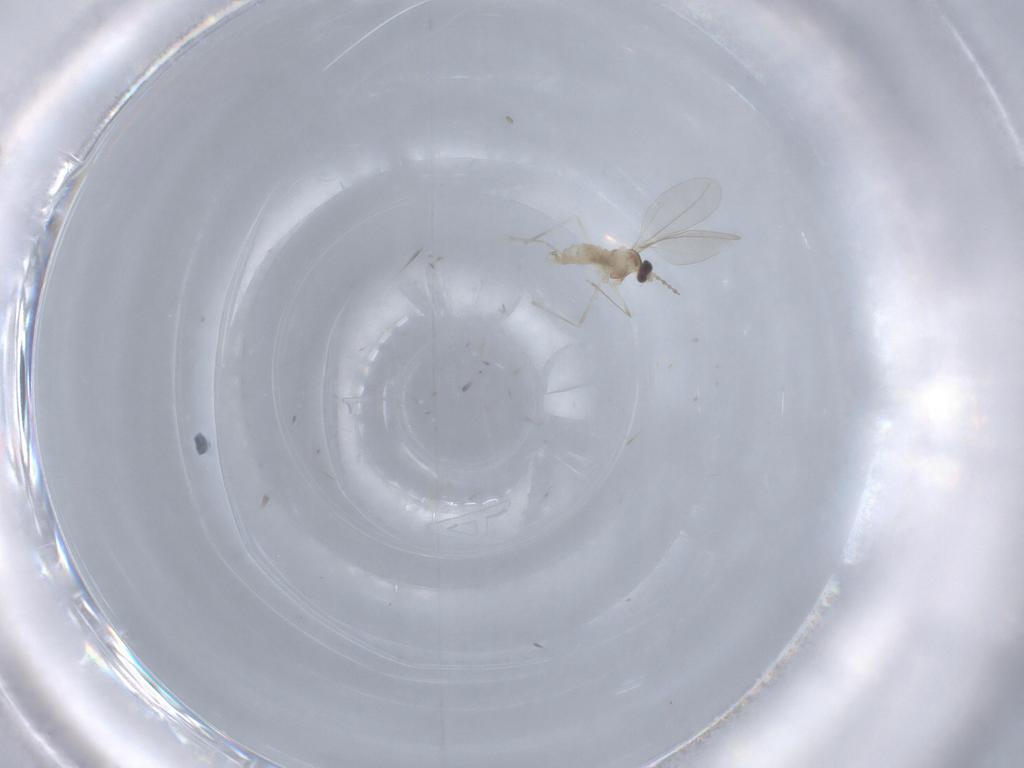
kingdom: Animalia
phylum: Arthropoda
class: Insecta
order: Diptera
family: Cecidomyiidae
